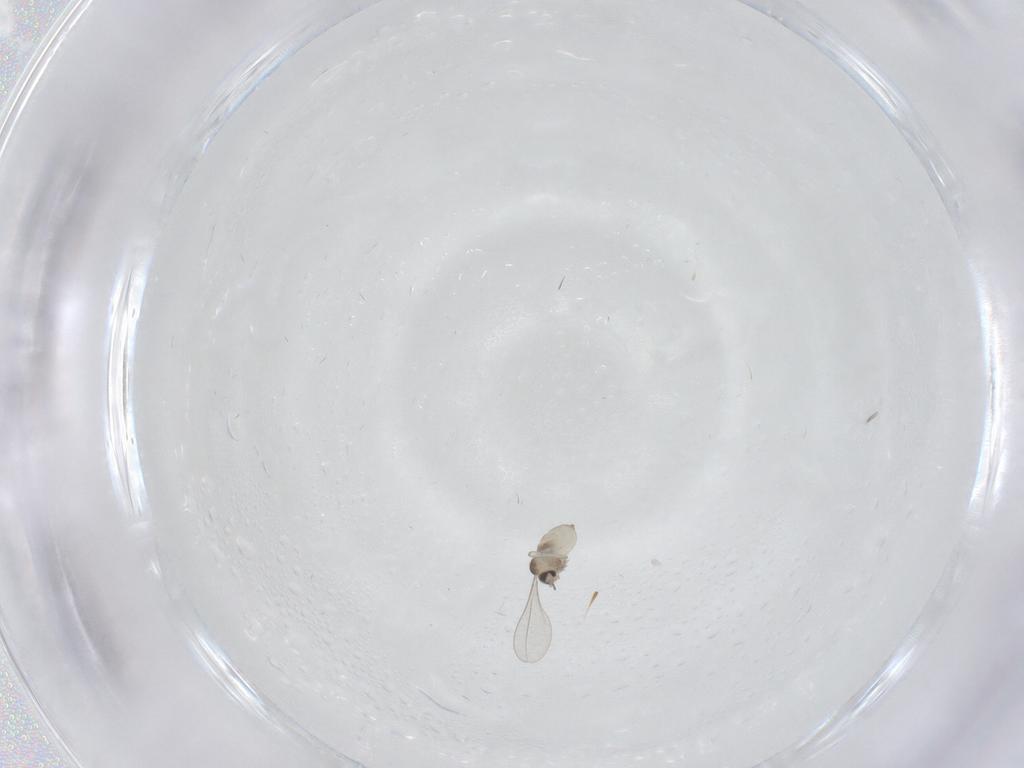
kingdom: Animalia
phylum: Arthropoda
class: Insecta
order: Diptera
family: Cecidomyiidae
